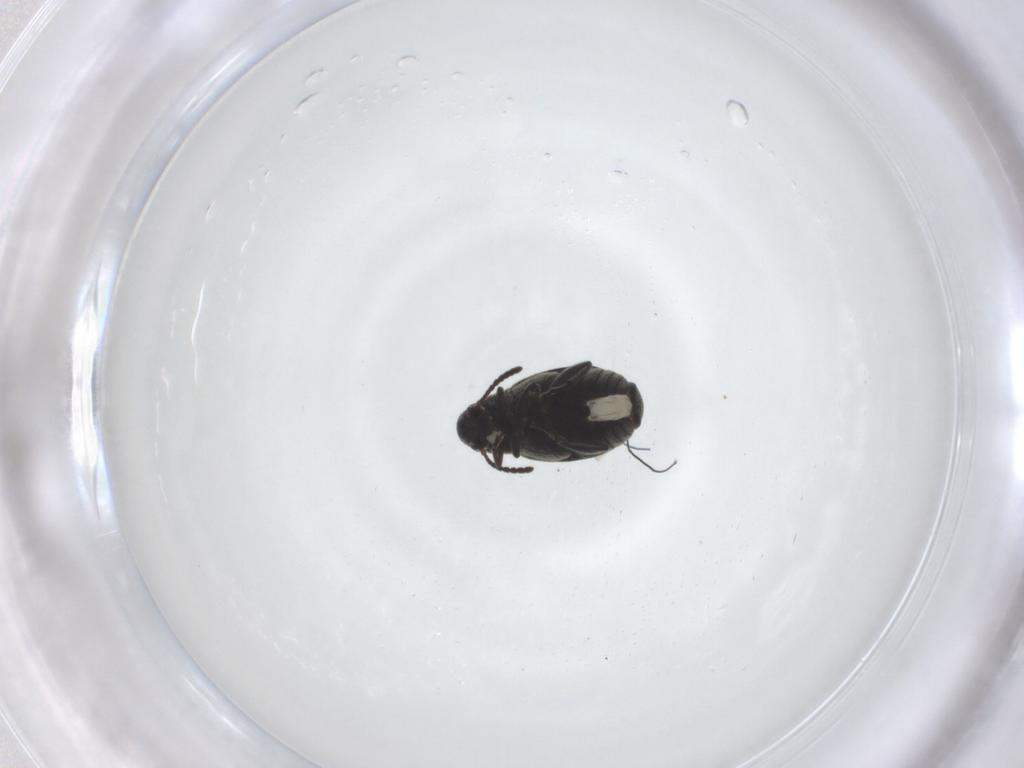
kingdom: Animalia
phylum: Arthropoda
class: Insecta
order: Coleoptera
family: Chrysomelidae
